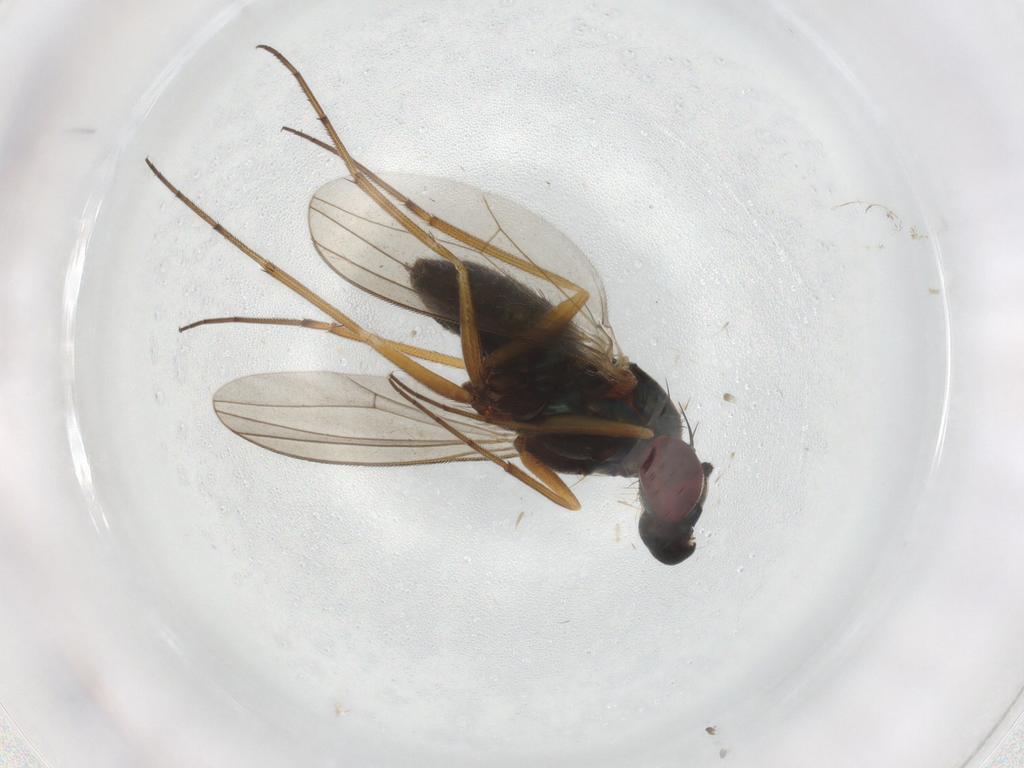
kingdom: Animalia
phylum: Arthropoda
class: Insecta
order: Diptera
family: Dolichopodidae
